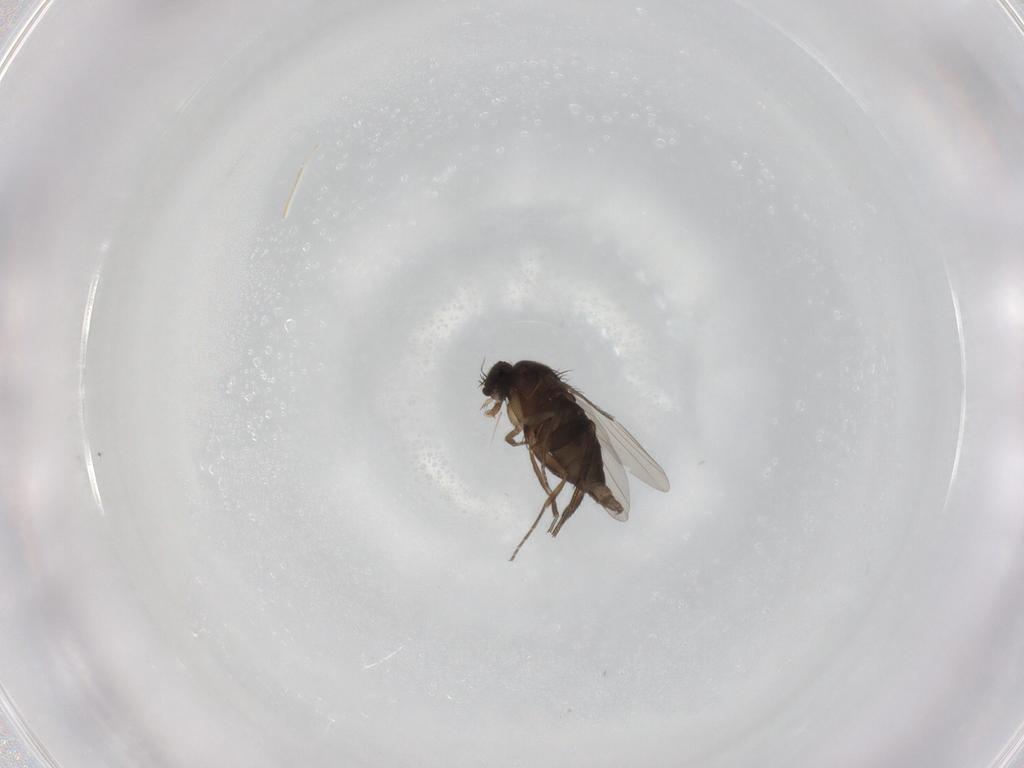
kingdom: Animalia
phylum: Arthropoda
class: Insecta
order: Diptera
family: Phoridae
